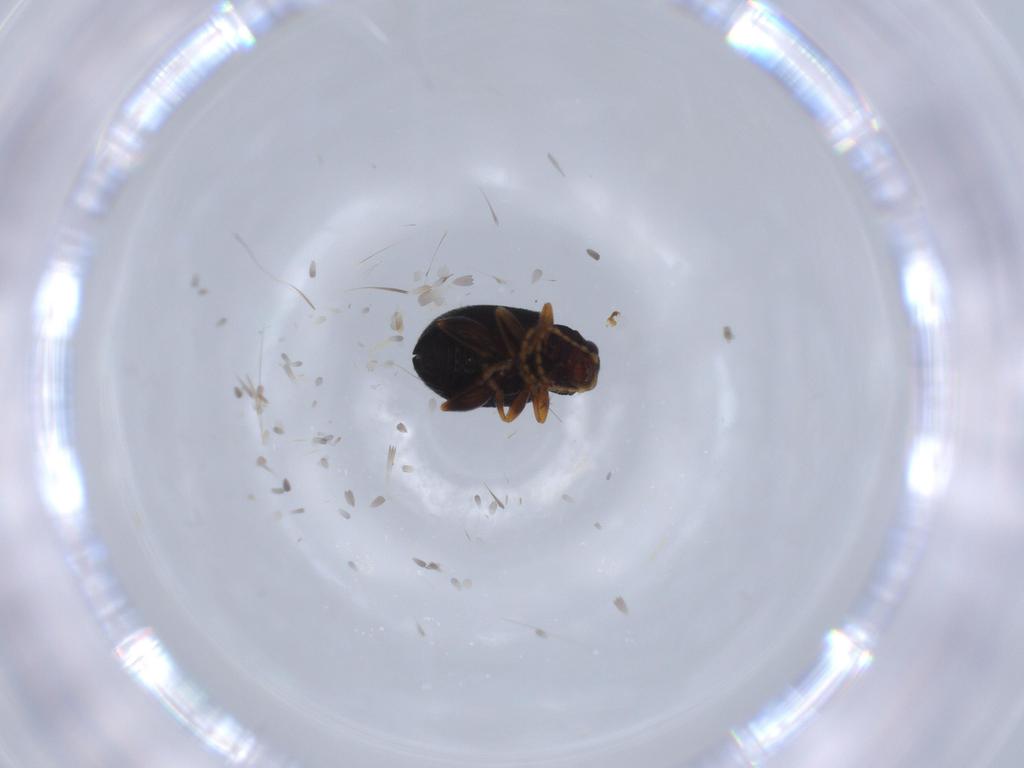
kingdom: Animalia
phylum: Arthropoda
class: Insecta
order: Coleoptera
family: Chrysomelidae
